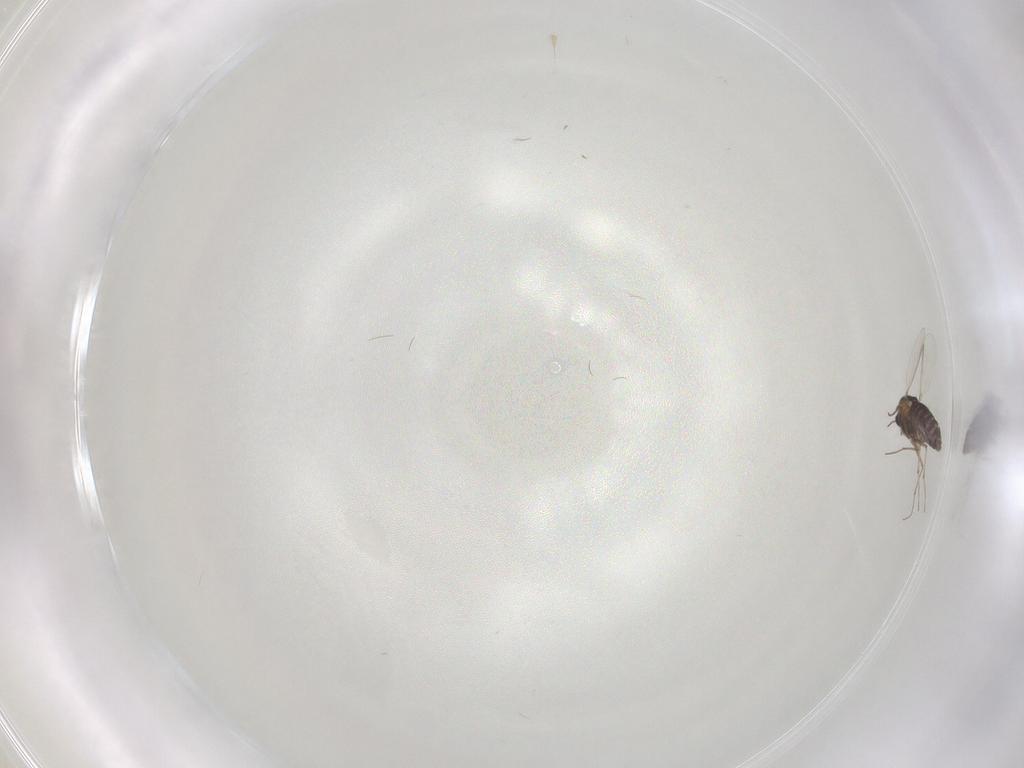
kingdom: Animalia
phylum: Arthropoda
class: Insecta
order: Diptera
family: Chironomidae
